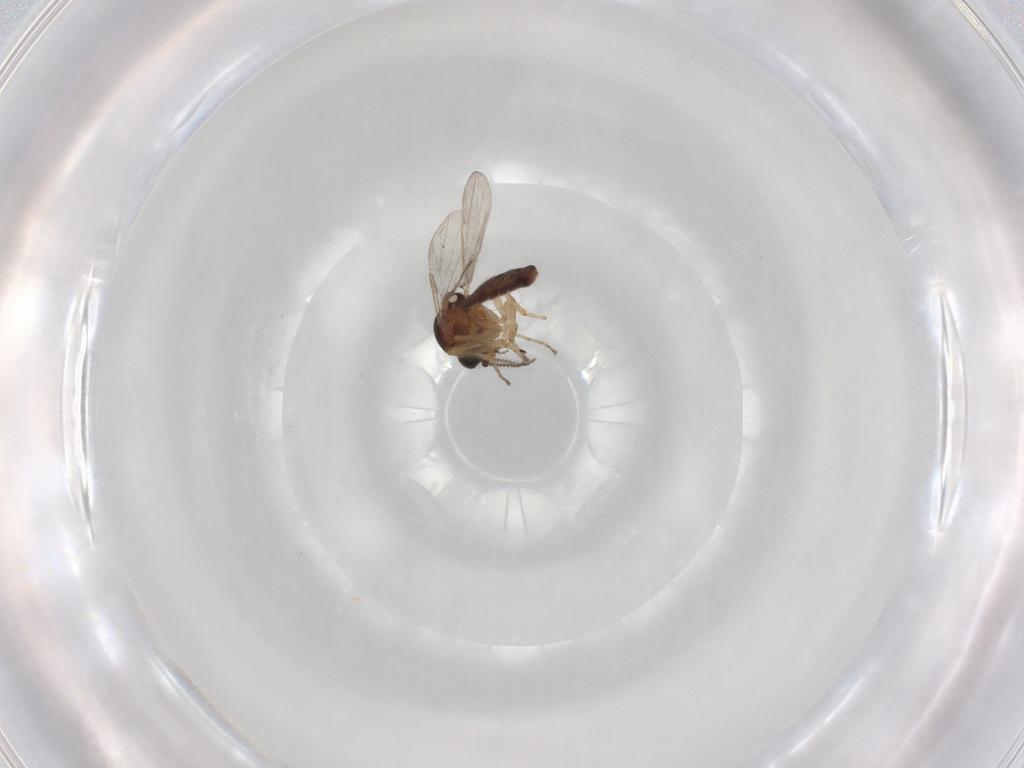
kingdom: Animalia
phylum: Arthropoda
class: Insecta
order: Diptera
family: Ceratopogonidae
